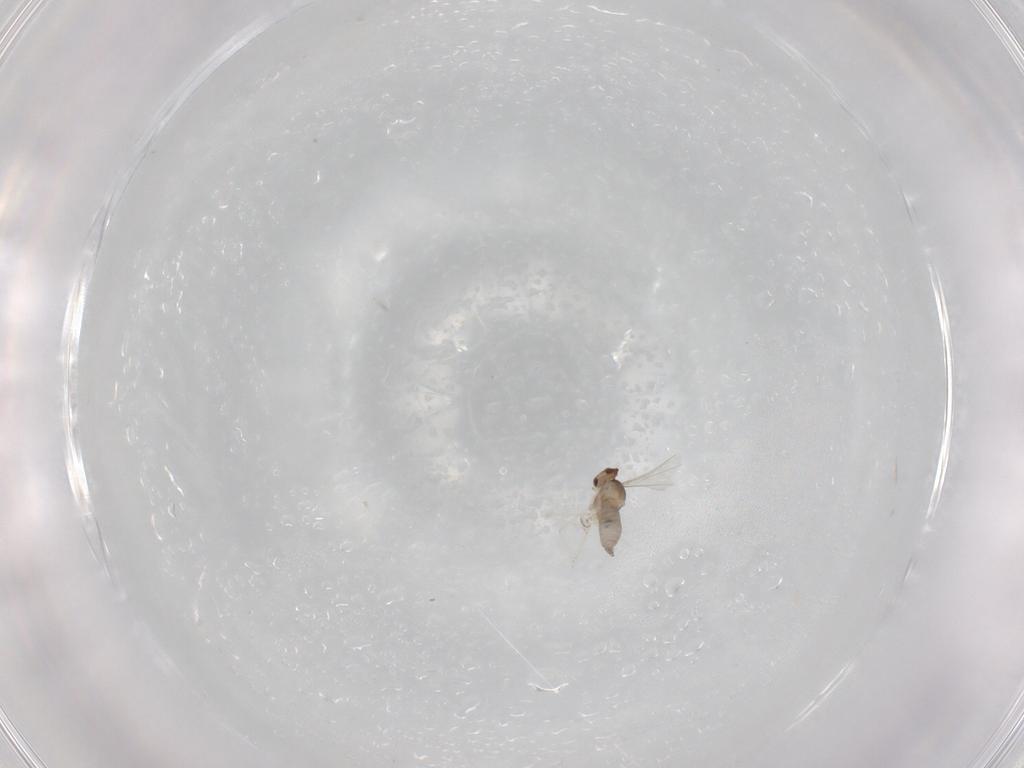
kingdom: Animalia
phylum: Arthropoda
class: Insecta
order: Diptera
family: Cecidomyiidae
